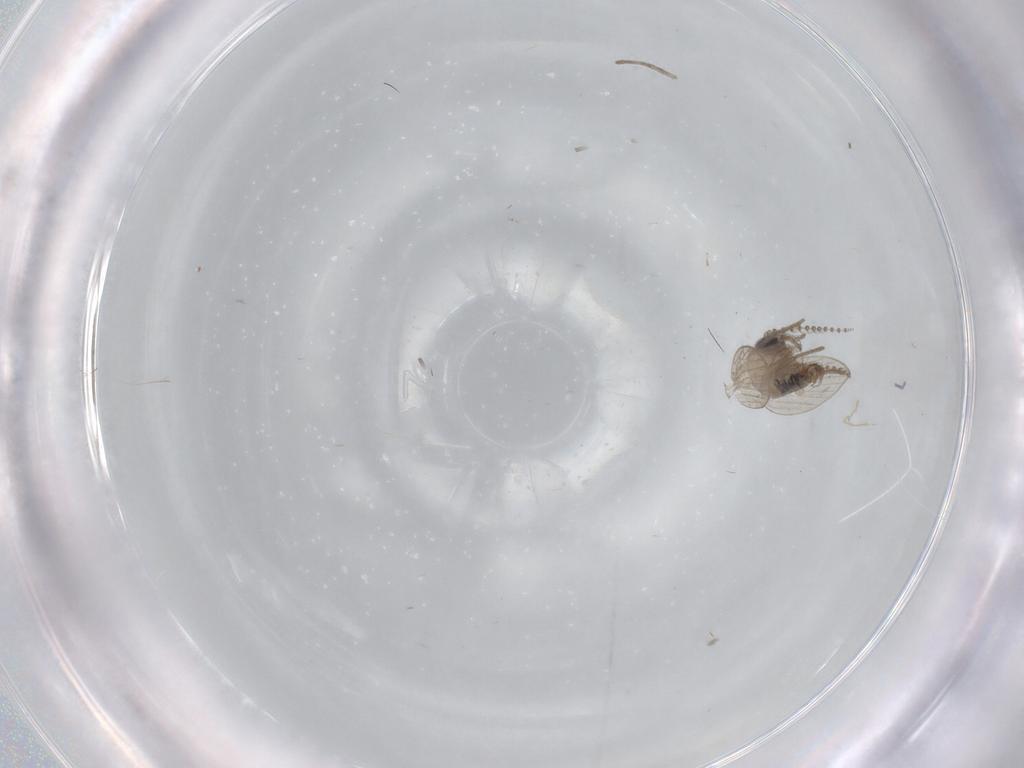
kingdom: Animalia
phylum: Arthropoda
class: Insecta
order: Diptera
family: Psychodidae
